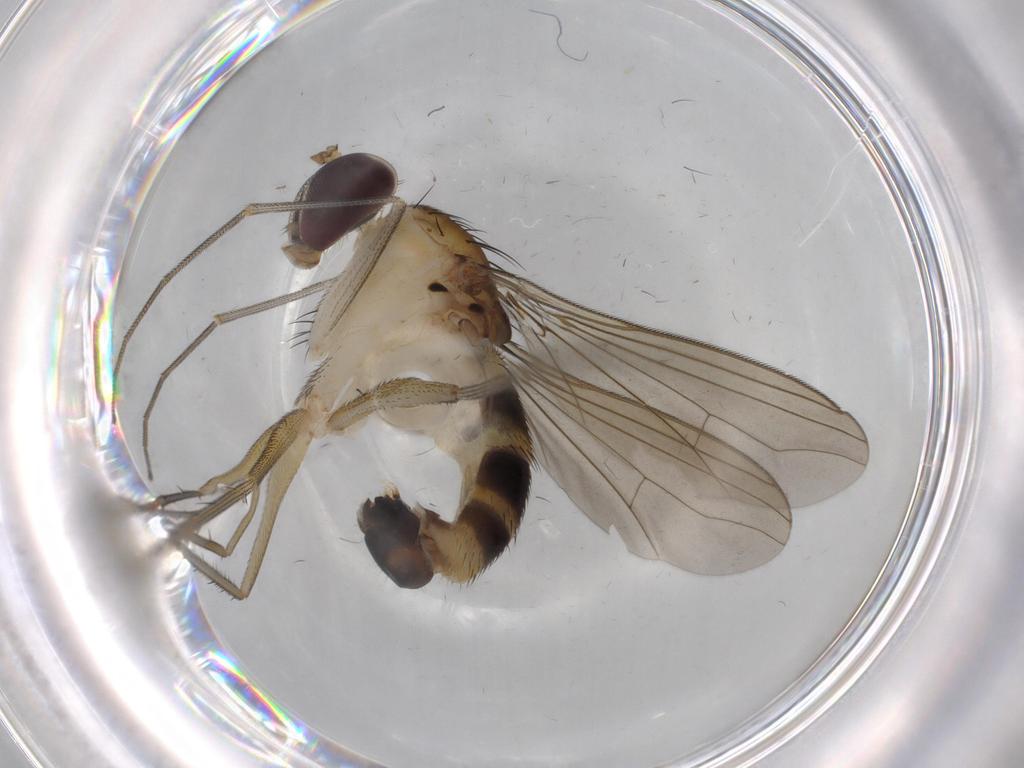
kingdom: Animalia
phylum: Arthropoda
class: Insecta
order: Diptera
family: Dolichopodidae
